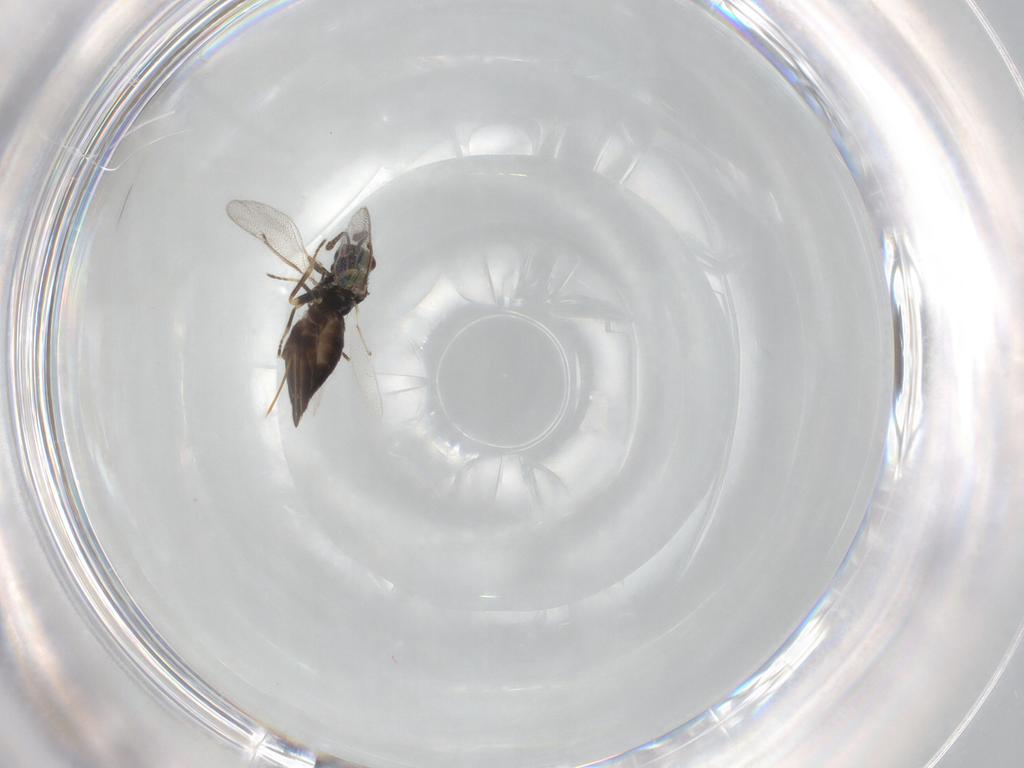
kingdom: Animalia
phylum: Arthropoda
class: Insecta
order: Hymenoptera
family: Eulophidae
